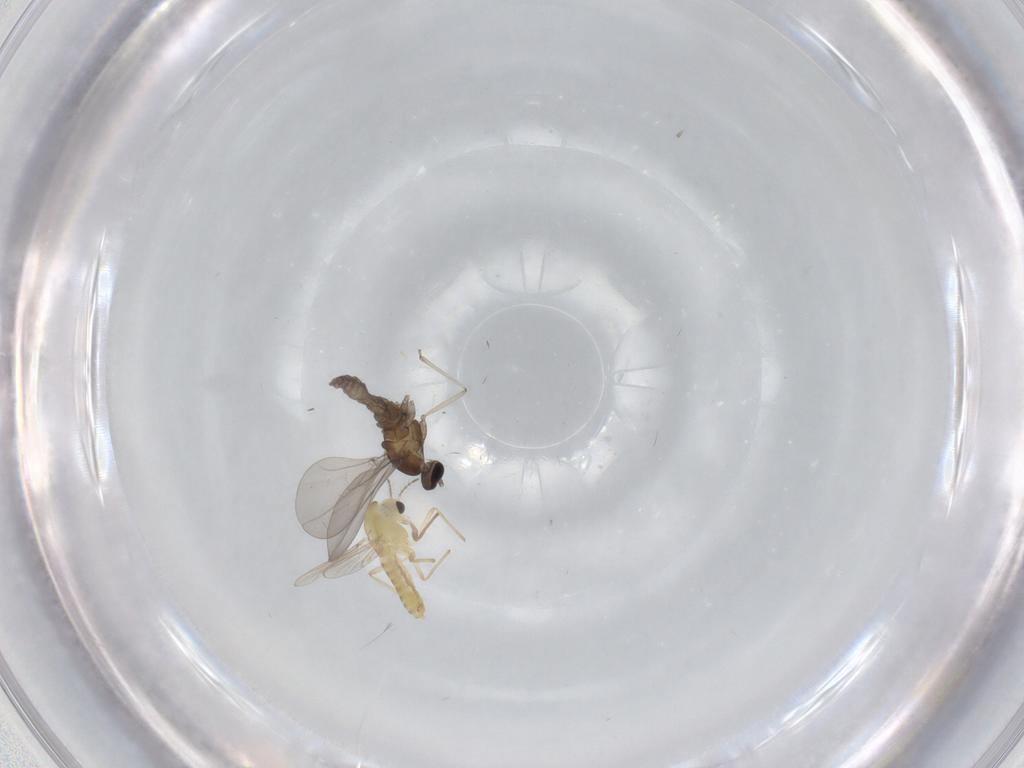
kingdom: Animalia
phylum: Arthropoda
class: Insecta
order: Diptera
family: Chironomidae
